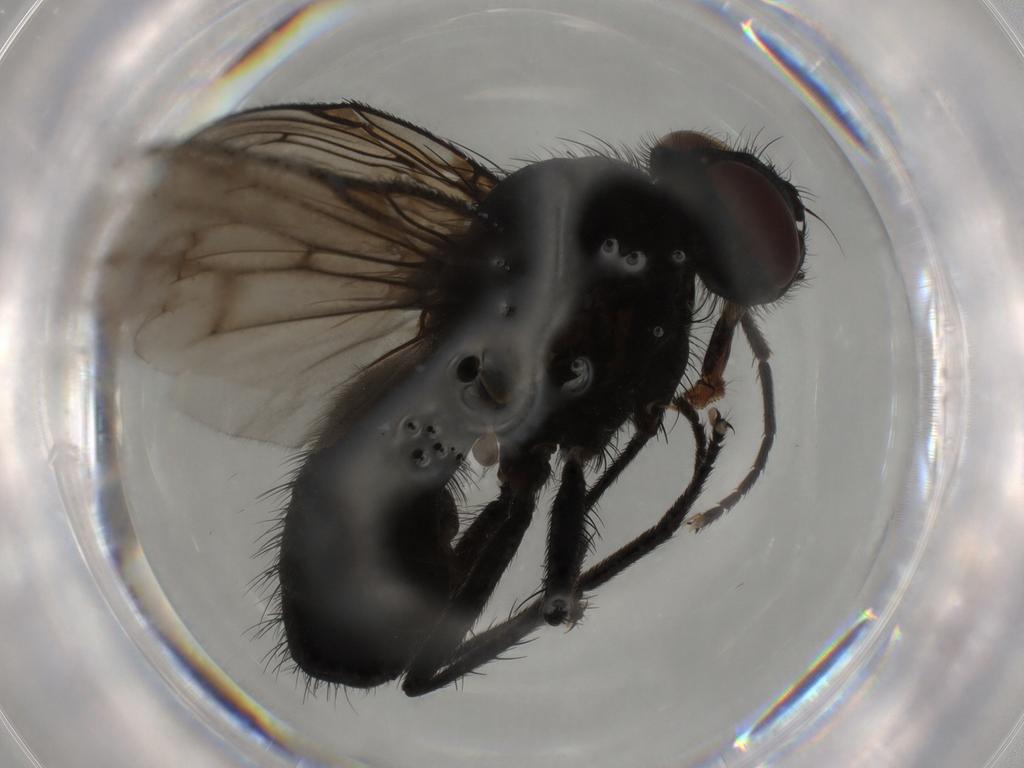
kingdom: Animalia
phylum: Arthropoda
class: Insecta
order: Diptera
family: Muscidae
